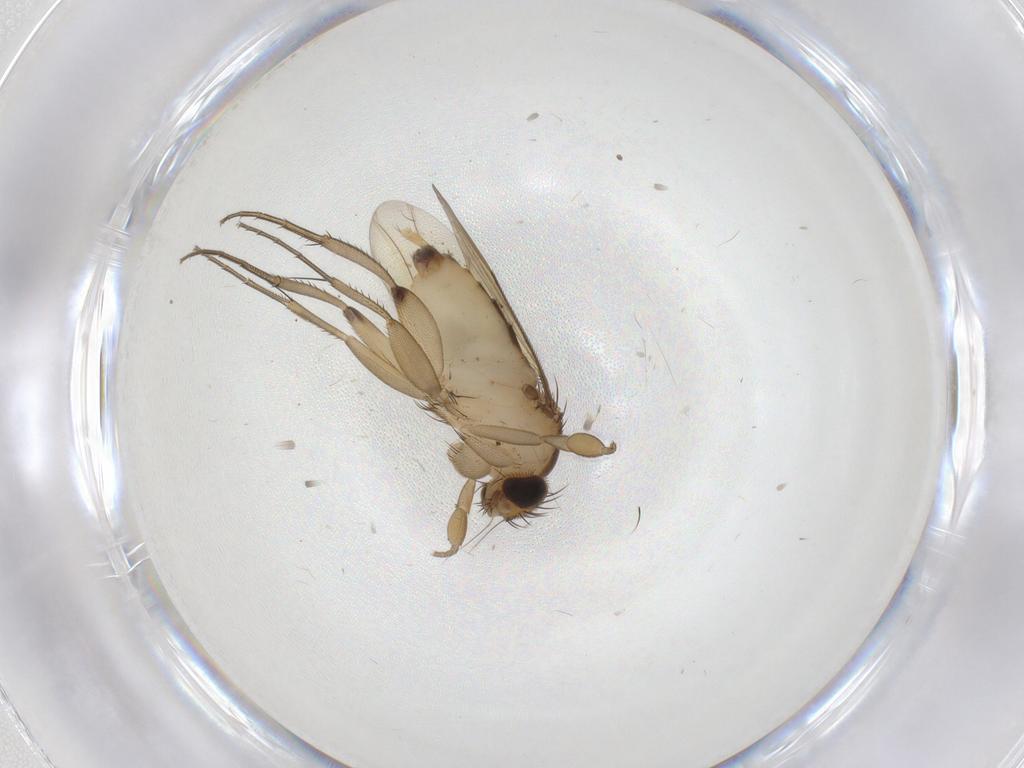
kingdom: Animalia
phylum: Arthropoda
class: Insecta
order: Diptera
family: Phoridae
